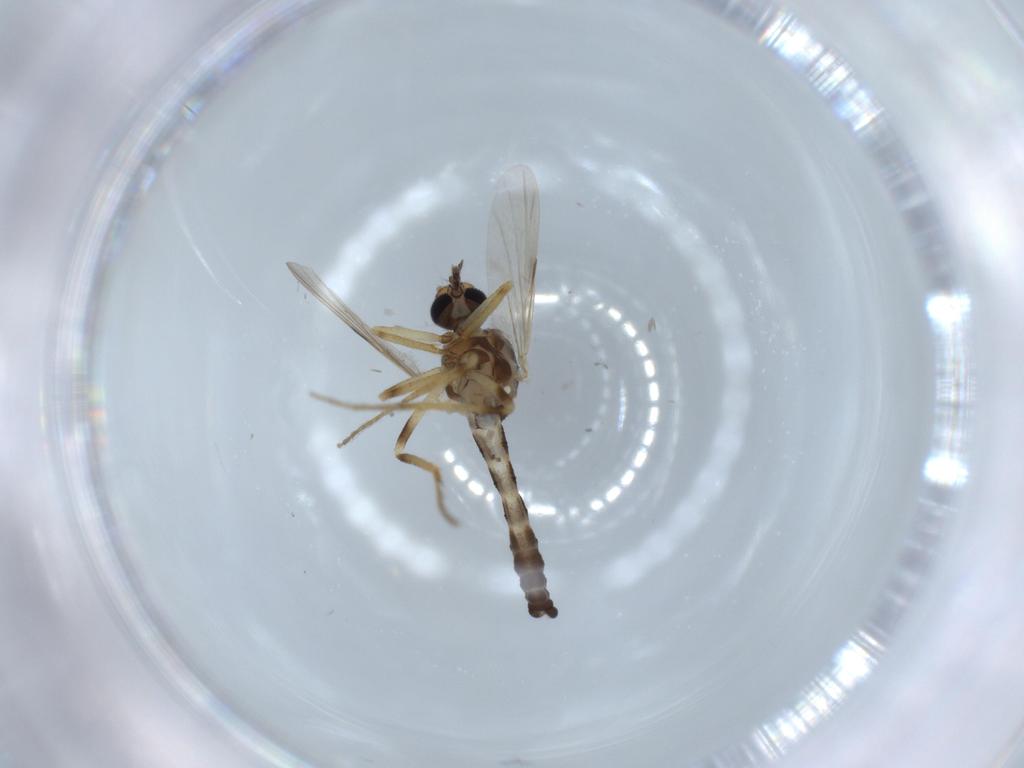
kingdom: Animalia
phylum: Arthropoda
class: Insecta
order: Diptera
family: Ceratopogonidae
